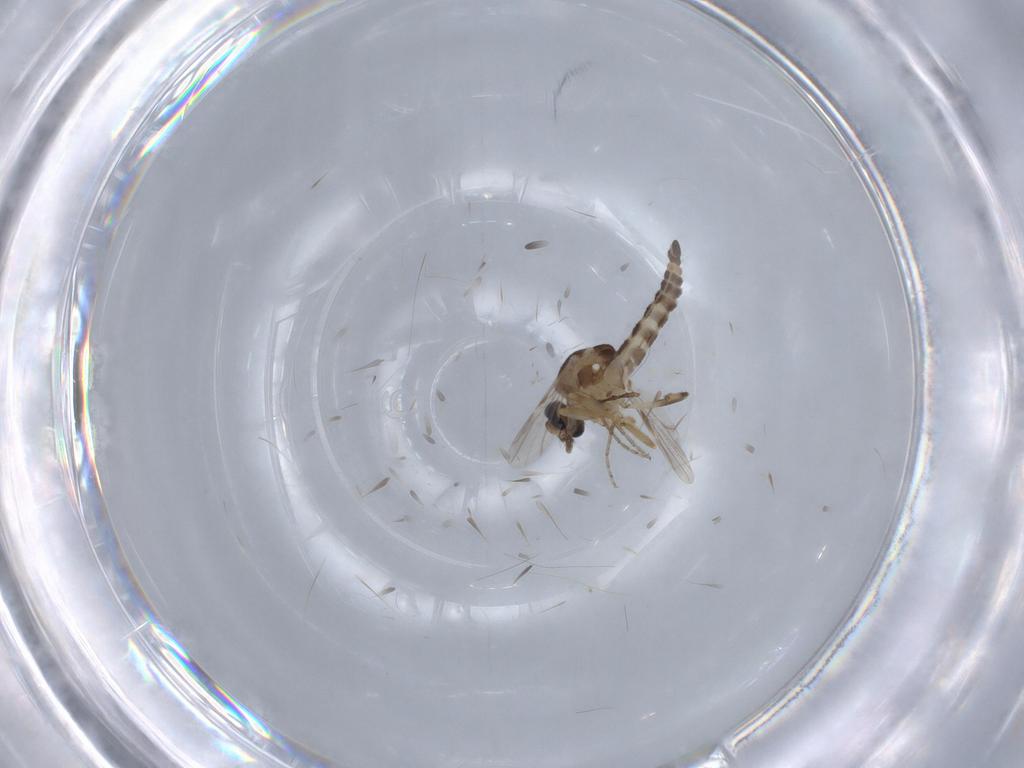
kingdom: Animalia
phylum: Arthropoda
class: Insecta
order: Diptera
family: Ceratopogonidae
